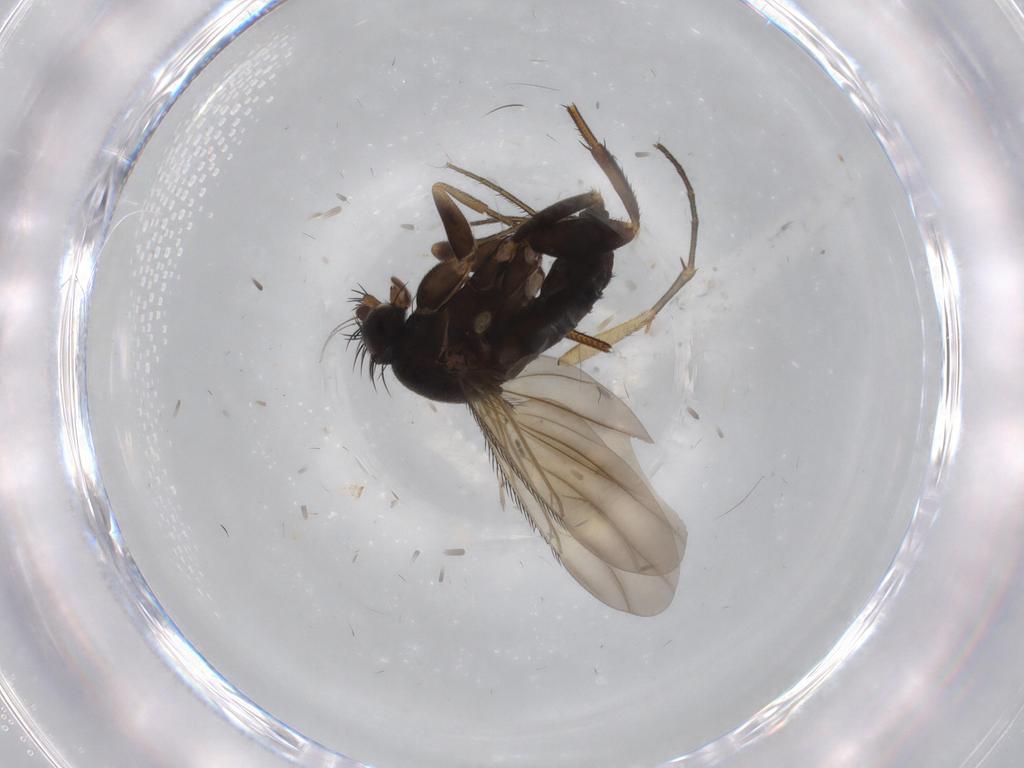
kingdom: Animalia
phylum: Arthropoda
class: Insecta
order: Diptera
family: Phoridae
